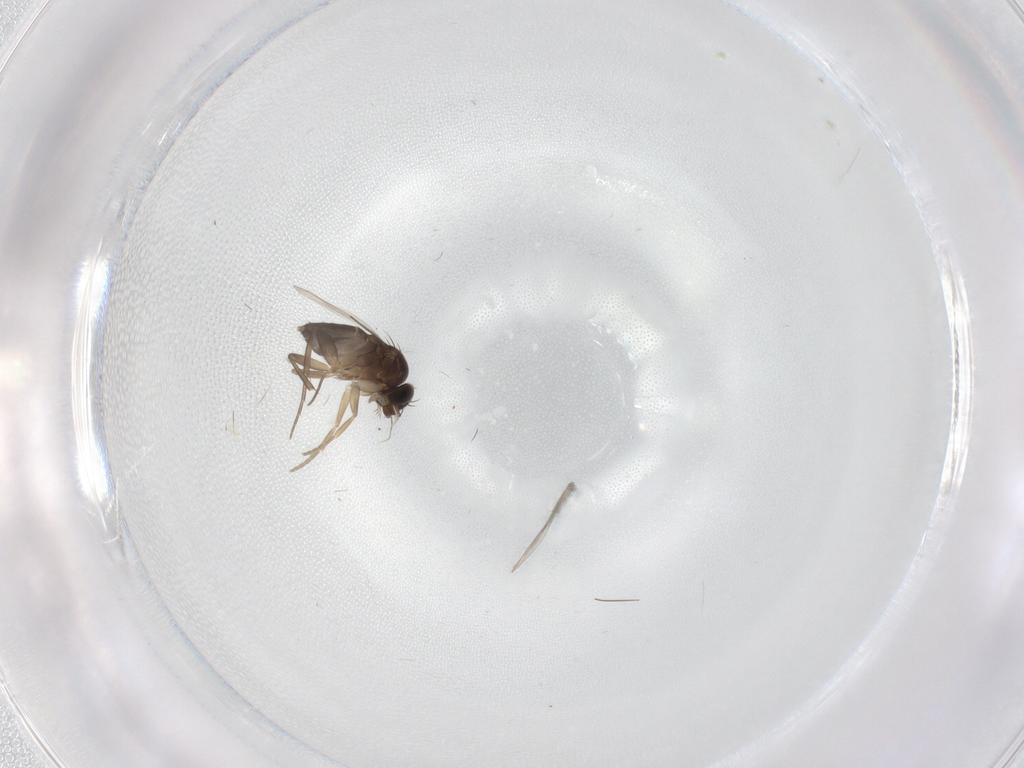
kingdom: Animalia
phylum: Arthropoda
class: Insecta
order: Diptera
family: Phoridae
